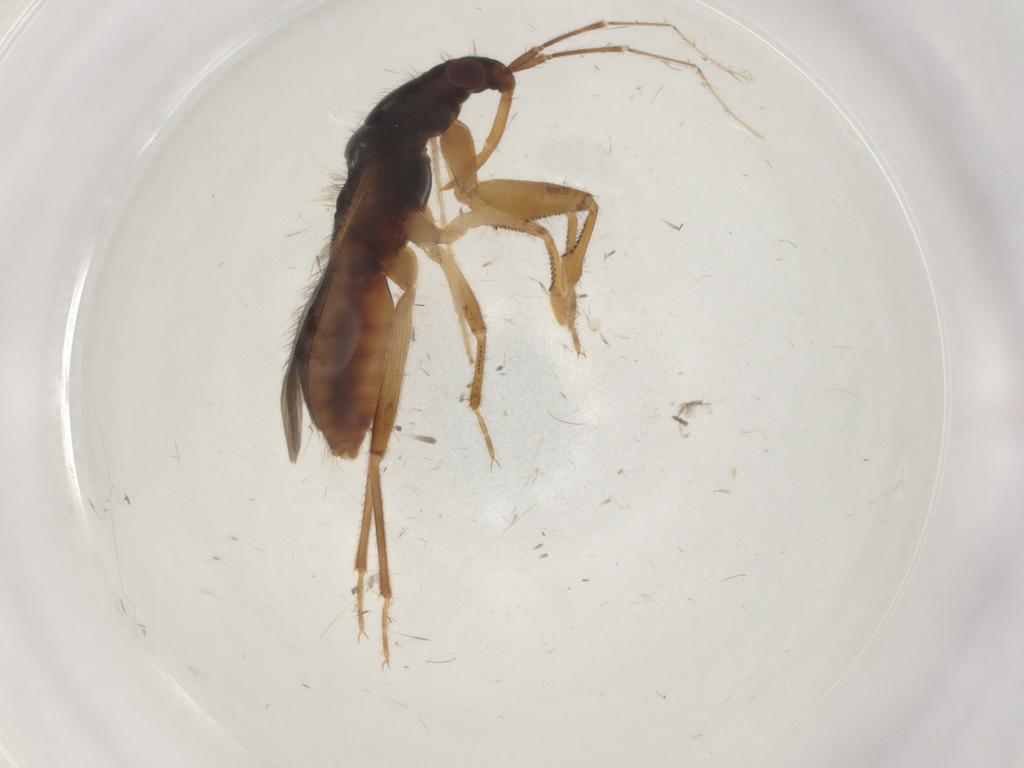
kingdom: Animalia
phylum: Arthropoda
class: Insecta
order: Hemiptera
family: Nabidae
